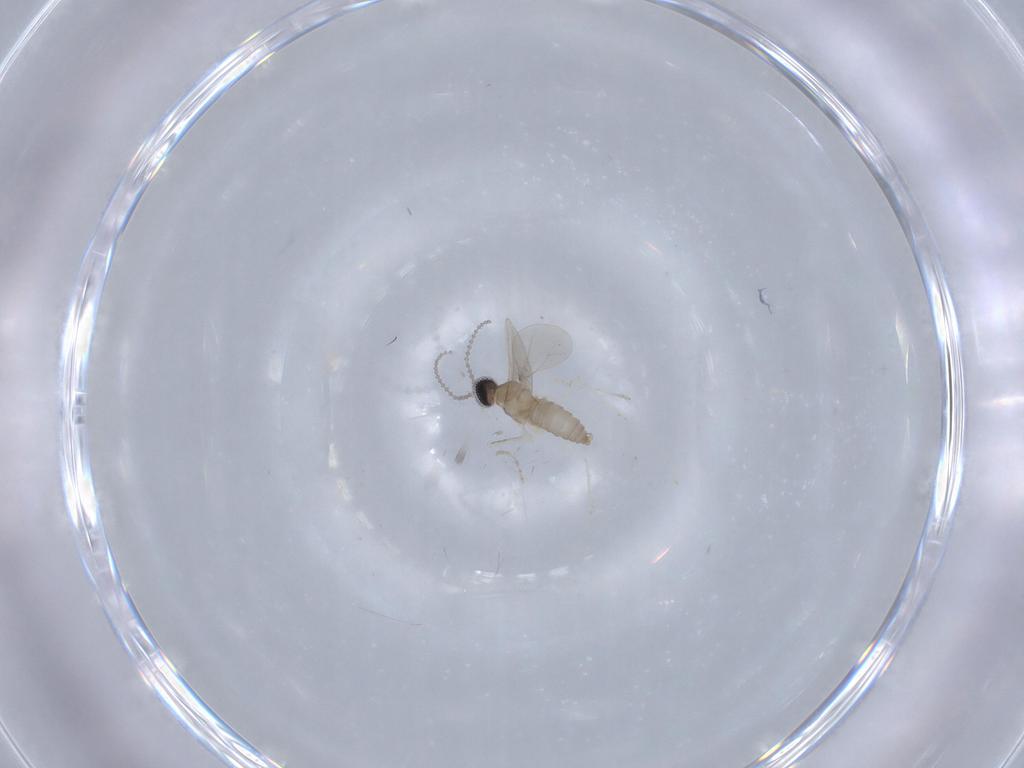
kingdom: Animalia
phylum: Arthropoda
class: Insecta
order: Diptera
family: Cecidomyiidae
